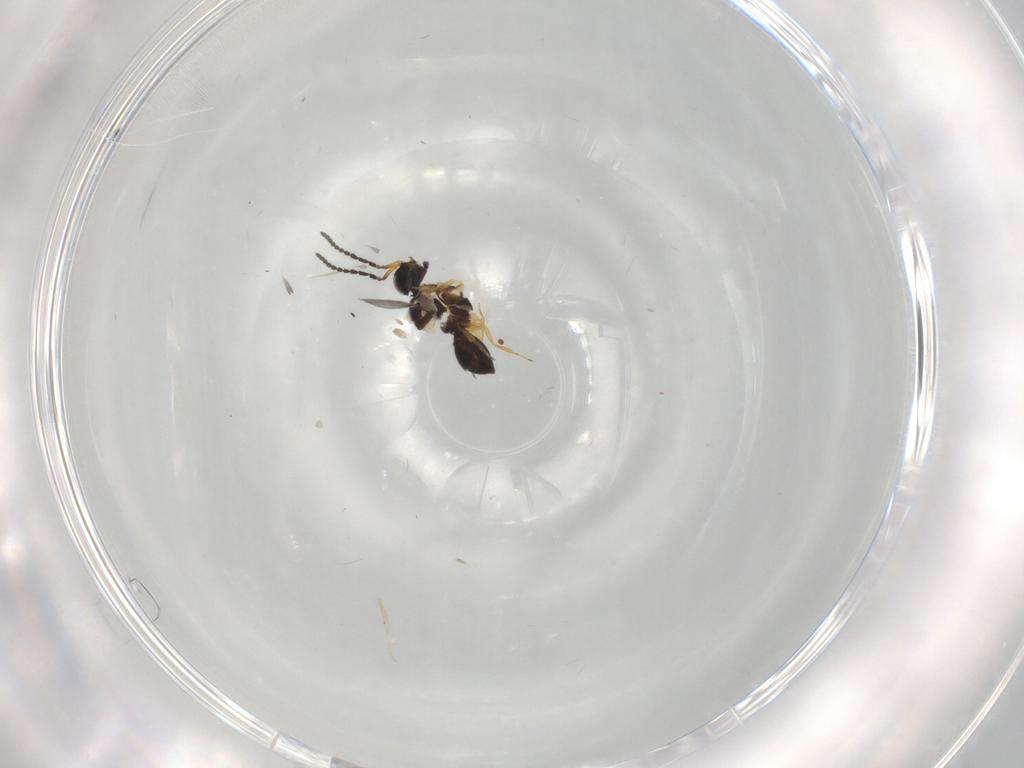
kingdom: Animalia
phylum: Arthropoda
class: Insecta
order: Hymenoptera
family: Scelionidae
